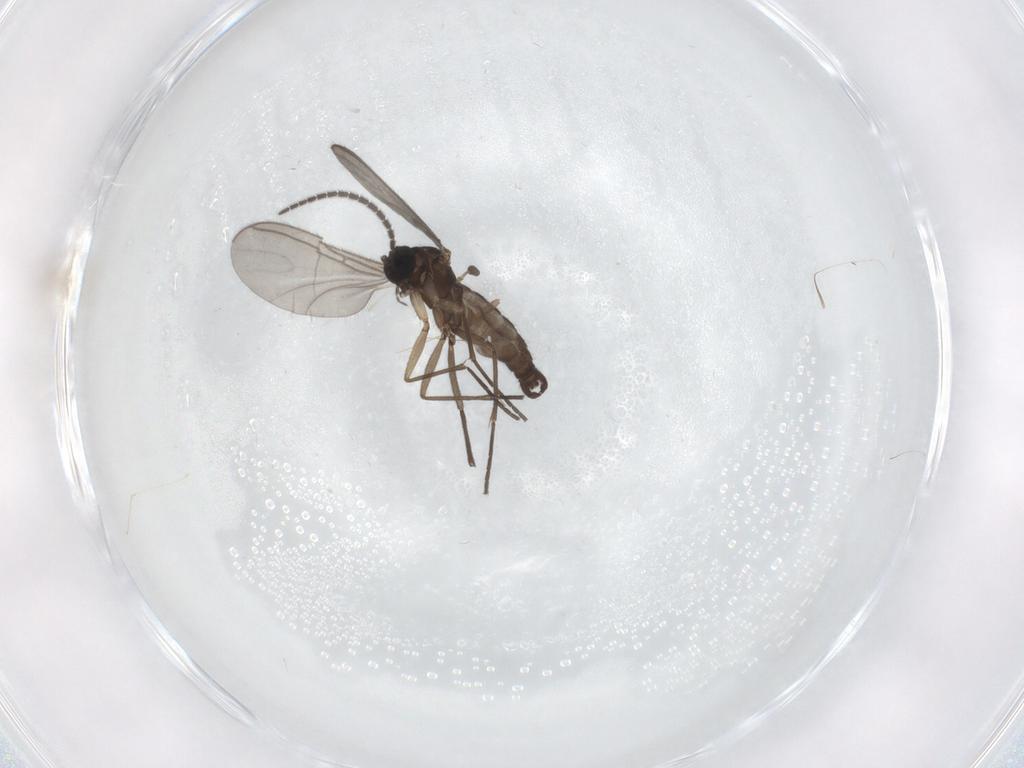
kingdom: Animalia
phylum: Arthropoda
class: Insecta
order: Diptera
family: Sciaridae
